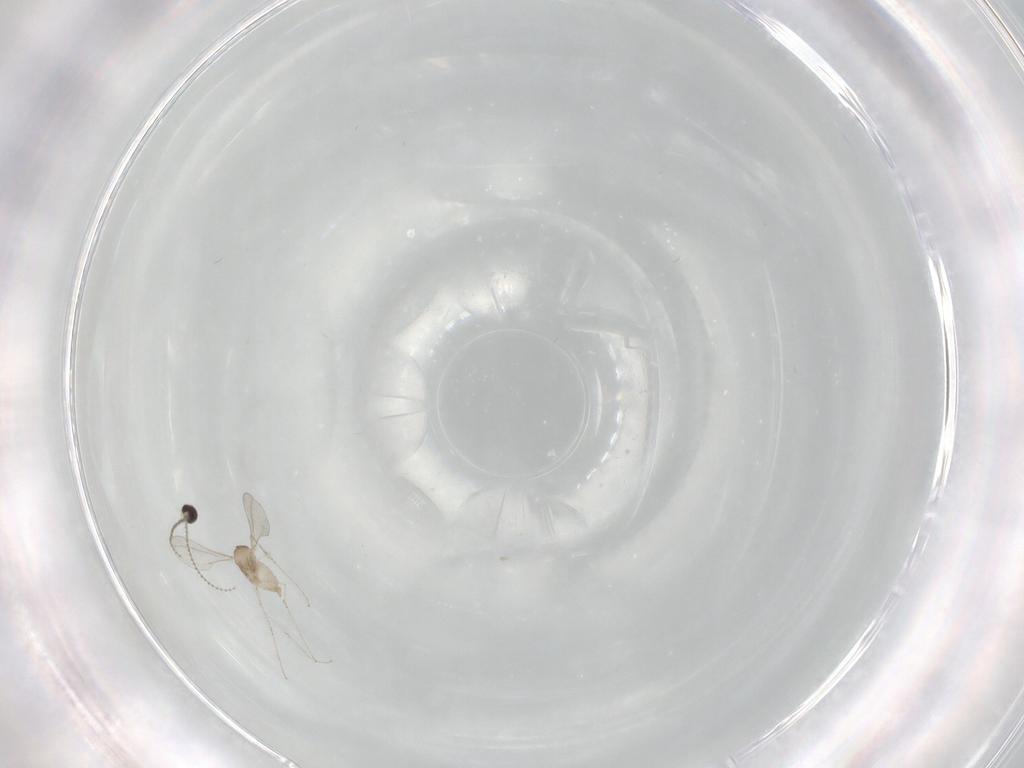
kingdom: Animalia
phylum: Arthropoda
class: Insecta
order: Diptera
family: Cecidomyiidae
